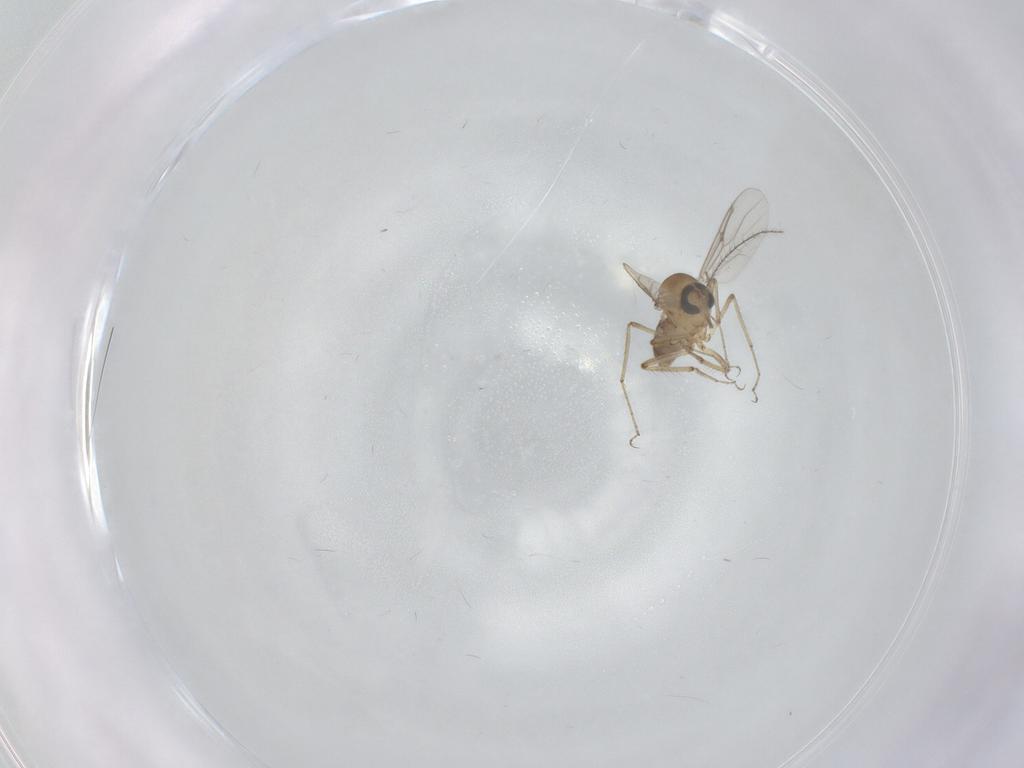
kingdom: Animalia
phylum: Arthropoda
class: Insecta
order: Diptera
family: Cecidomyiidae
